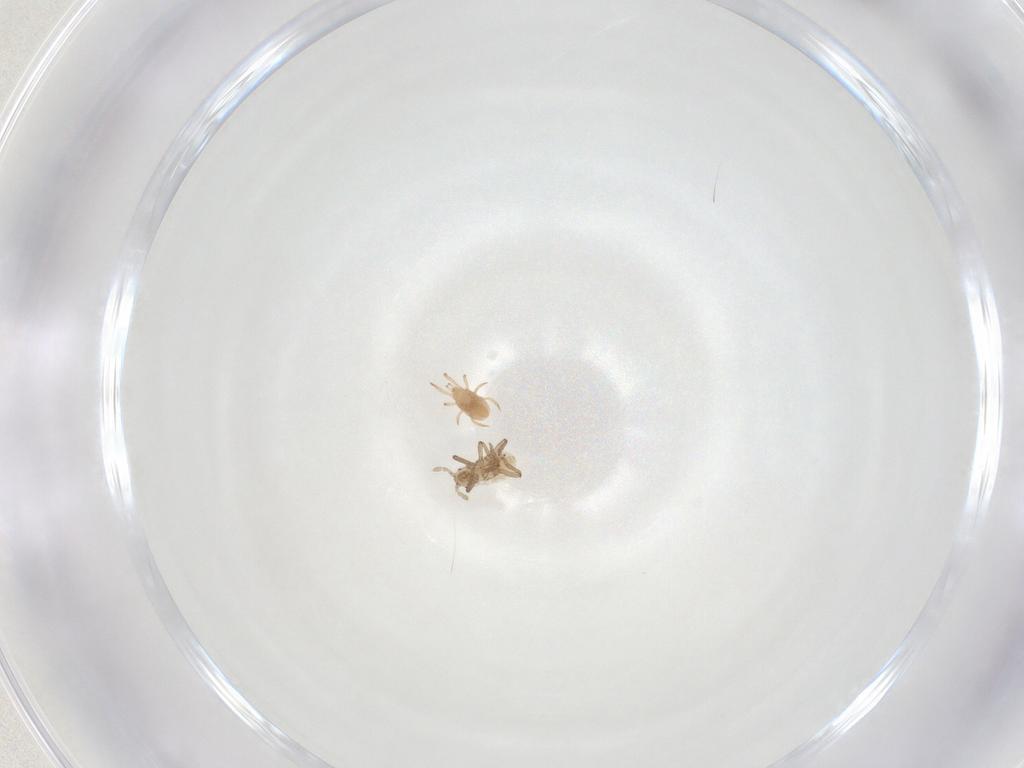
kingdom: Animalia
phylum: Arthropoda
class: Insecta
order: Hemiptera
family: Aphididae
